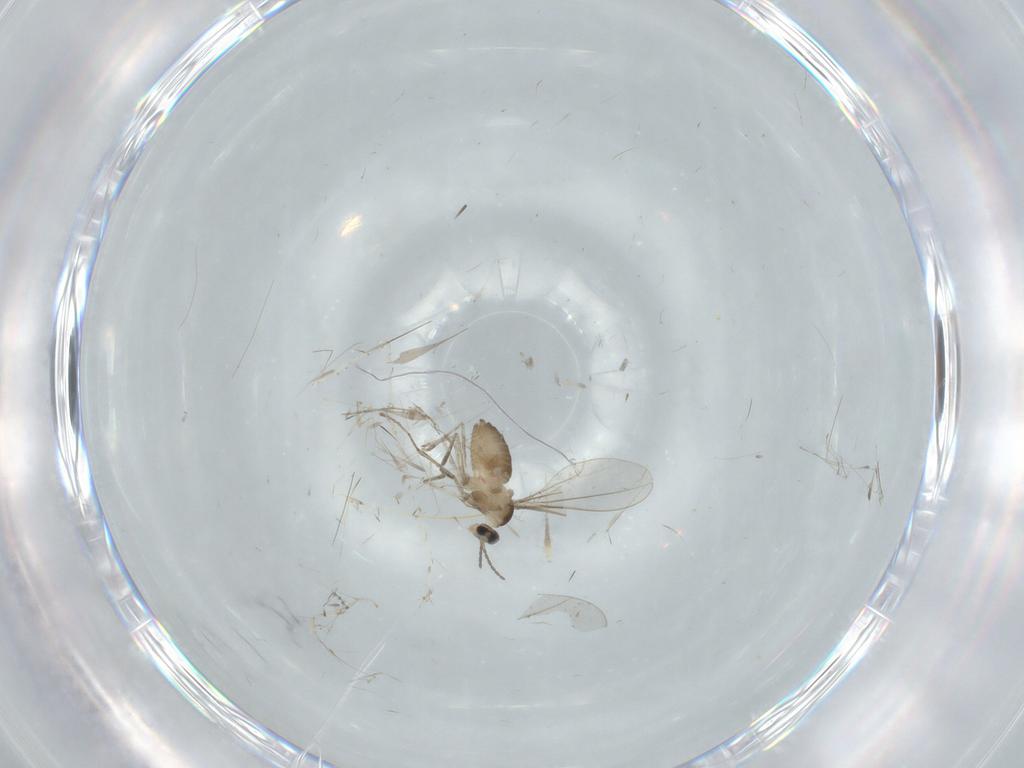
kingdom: Animalia
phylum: Arthropoda
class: Insecta
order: Diptera
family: Cecidomyiidae
